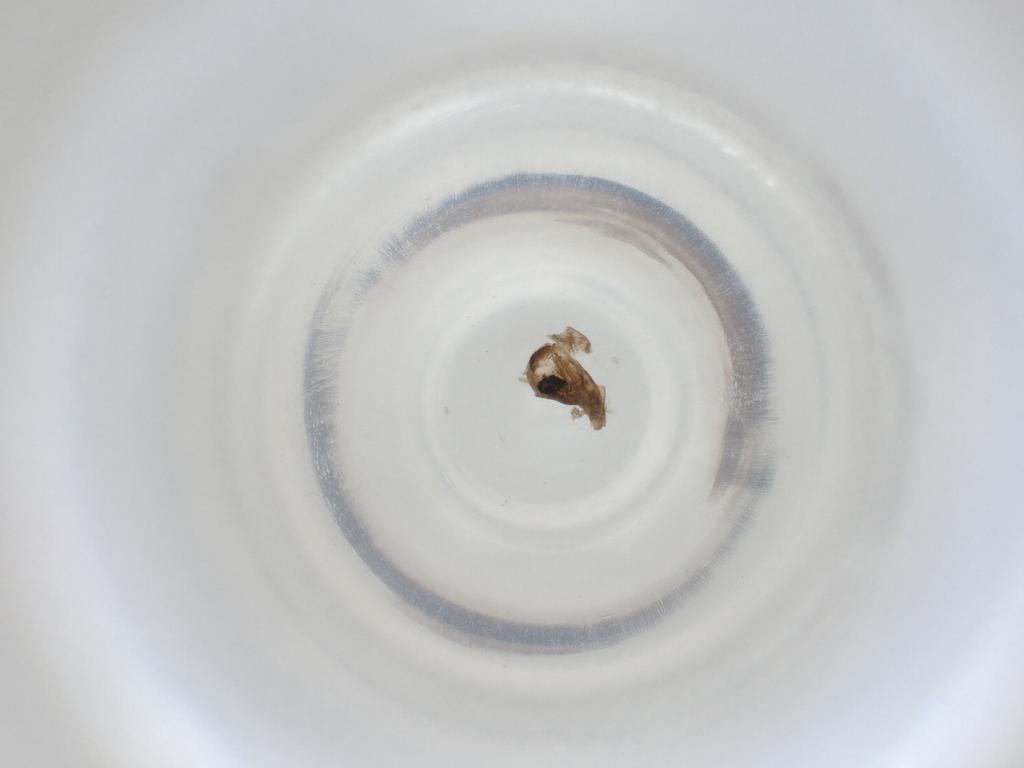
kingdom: Animalia
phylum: Arthropoda
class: Insecta
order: Diptera
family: Cecidomyiidae
